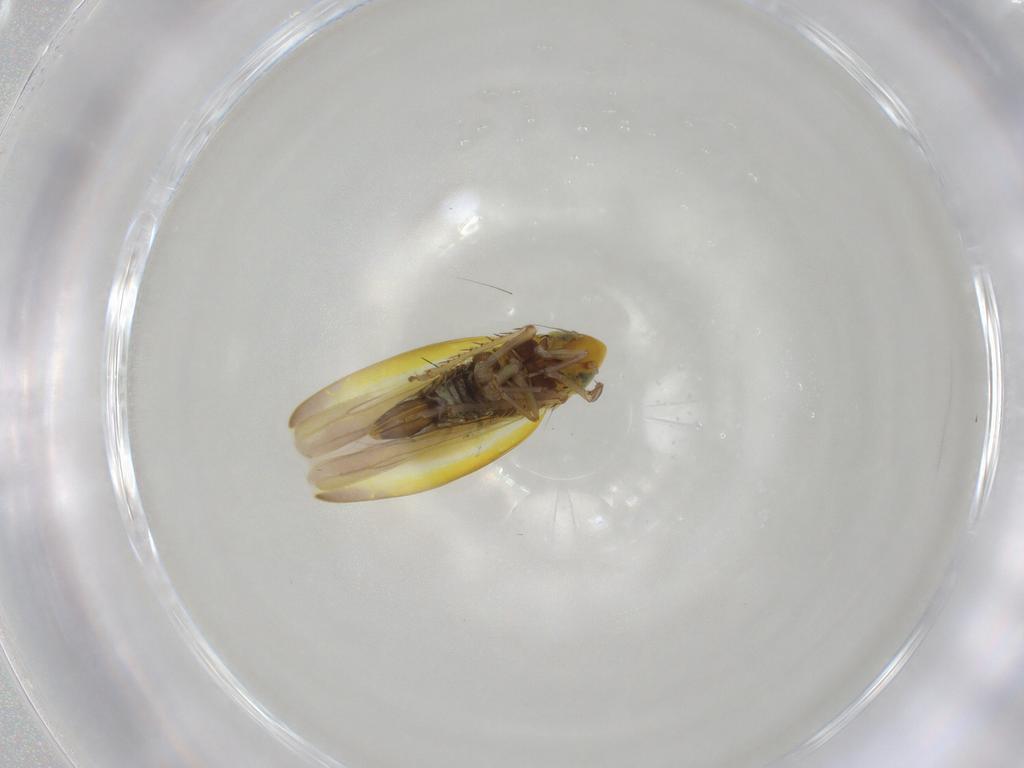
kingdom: Animalia
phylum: Arthropoda
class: Insecta
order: Hemiptera
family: Cicadellidae
